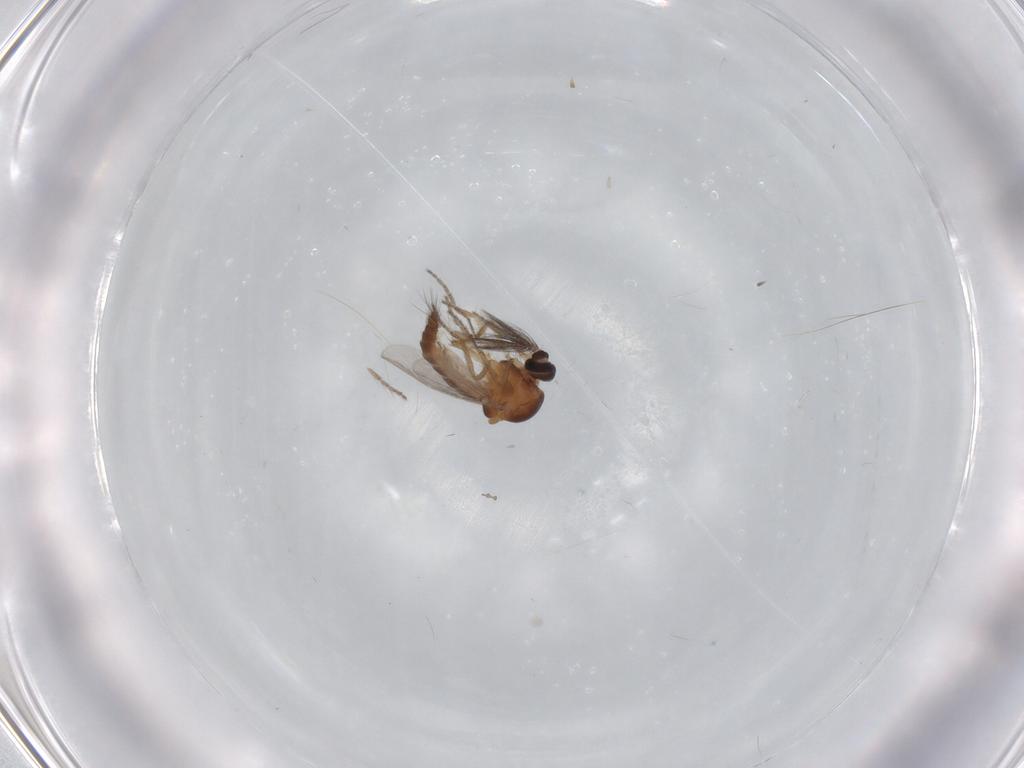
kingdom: Animalia
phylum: Arthropoda
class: Insecta
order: Diptera
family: Ceratopogonidae
